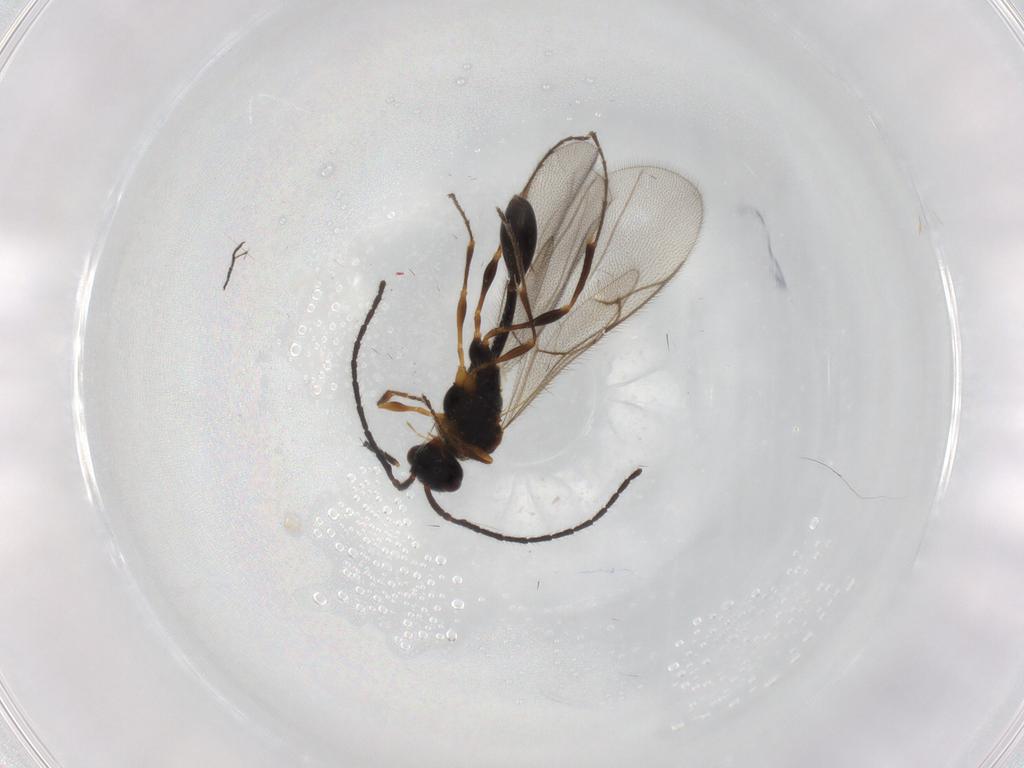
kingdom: Animalia
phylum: Arthropoda
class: Insecta
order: Hymenoptera
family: Diapriidae
